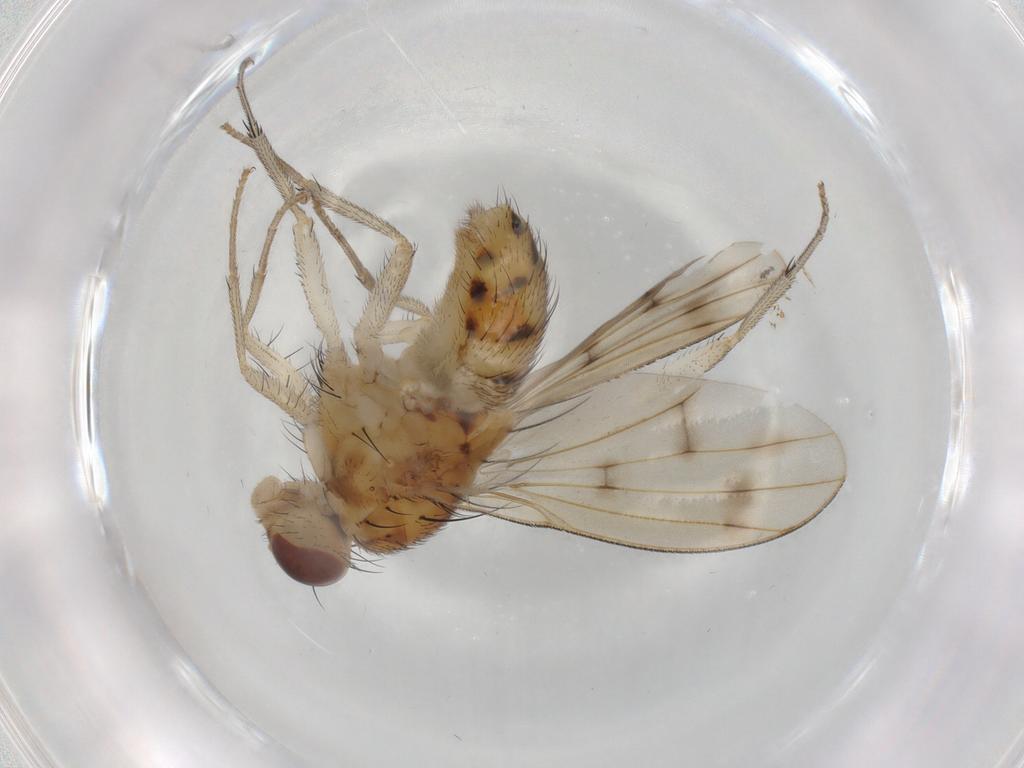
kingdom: Animalia
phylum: Arthropoda
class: Insecta
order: Diptera
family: Cecidomyiidae
